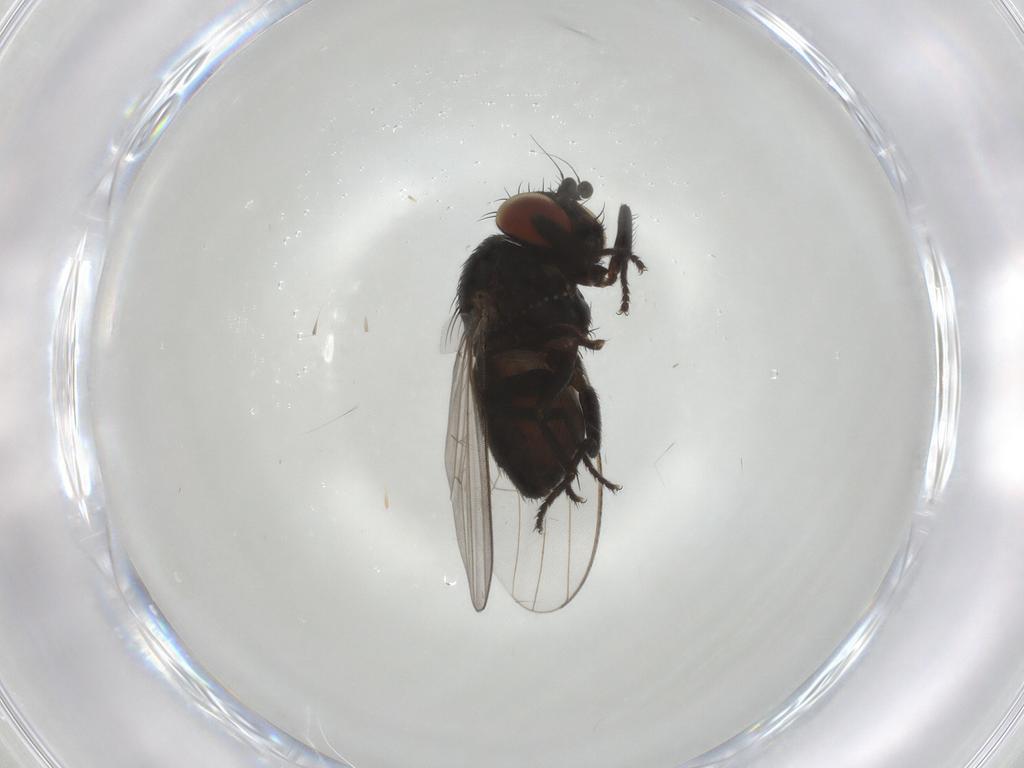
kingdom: Animalia
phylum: Arthropoda
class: Insecta
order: Diptera
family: Chloropidae
